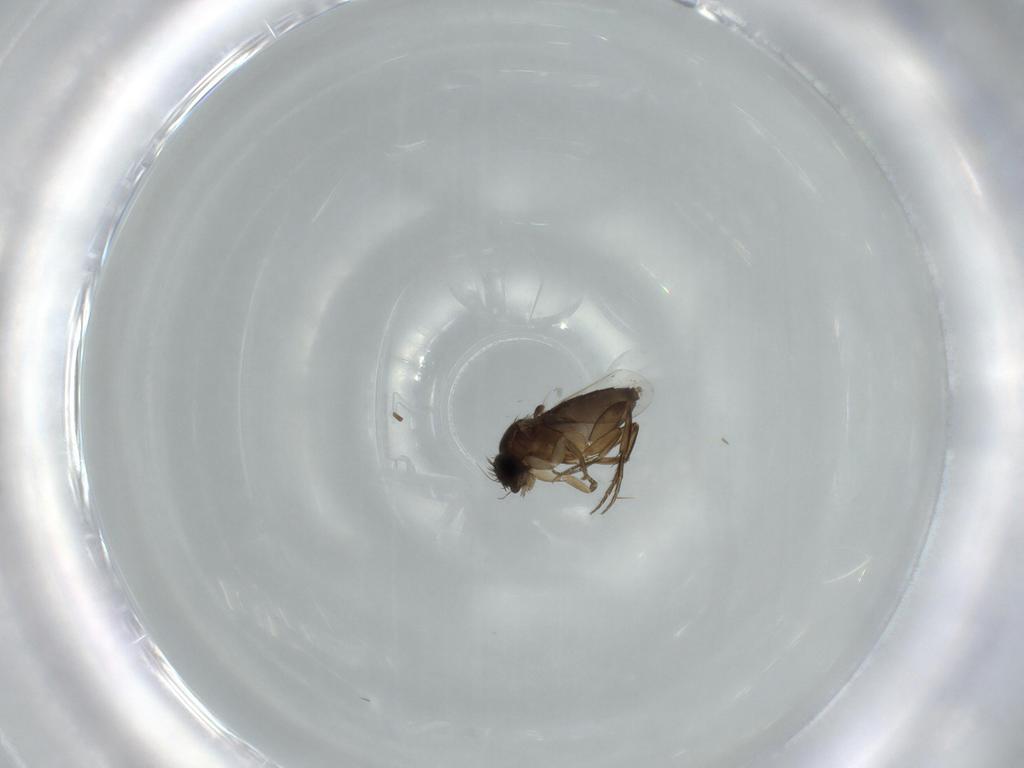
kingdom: Animalia
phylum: Arthropoda
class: Insecta
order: Diptera
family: Phoridae
